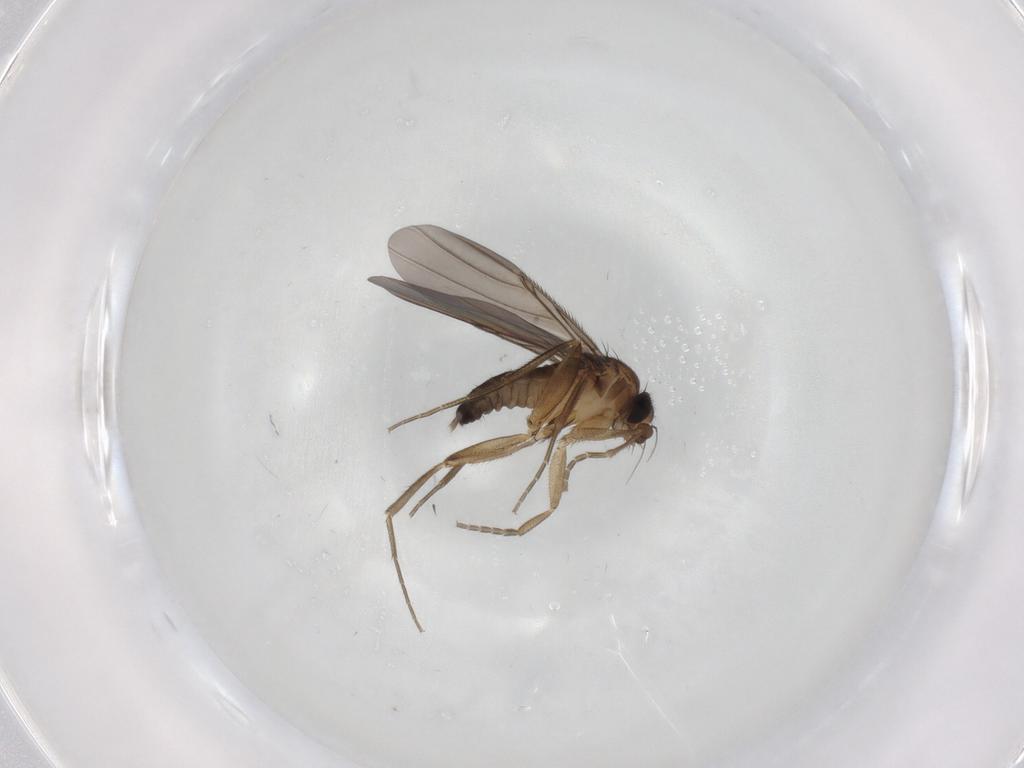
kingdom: Animalia
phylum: Arthropoda
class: Insecta
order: Diptera
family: Phoridae
